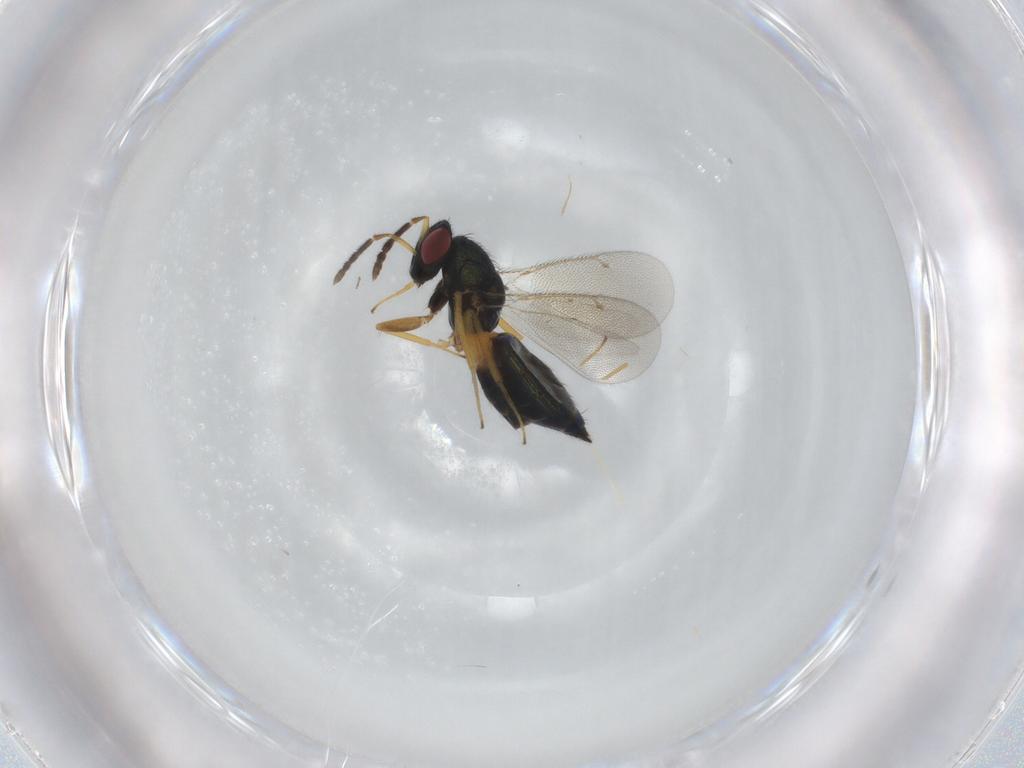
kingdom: Animalia
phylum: Arthropoda
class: Insecta
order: Hymenoptera
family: Eulophidae
